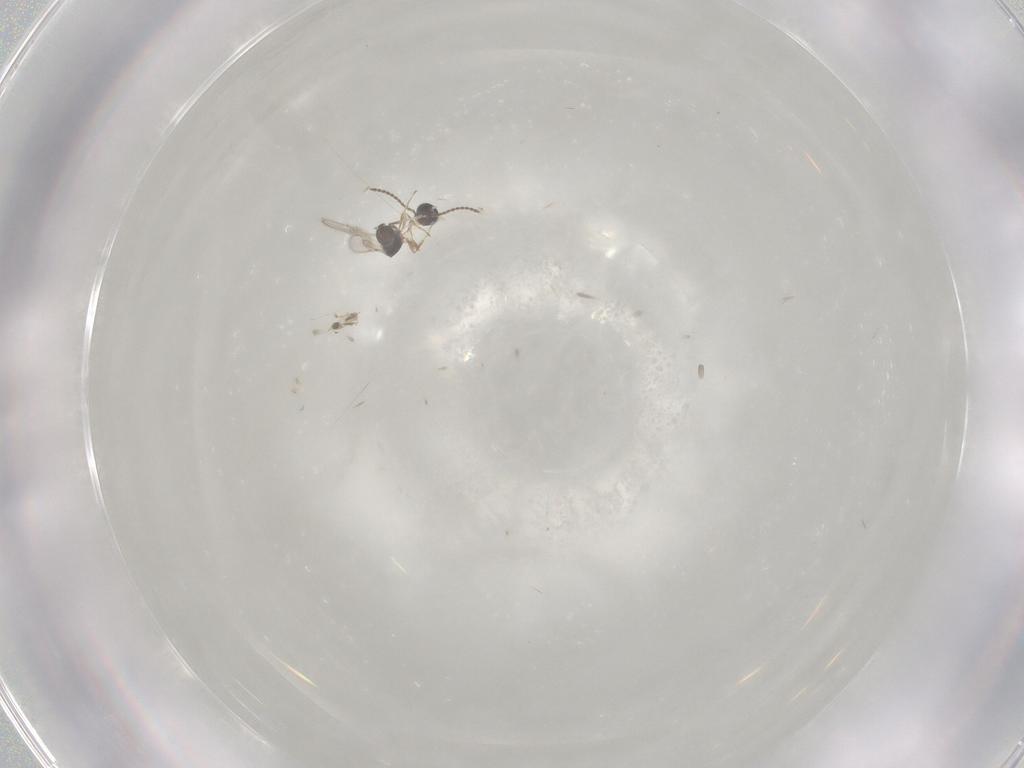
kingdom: Animalia
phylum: Arthropoda
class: Insecta
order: Hymenoptera
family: Scelionidae
